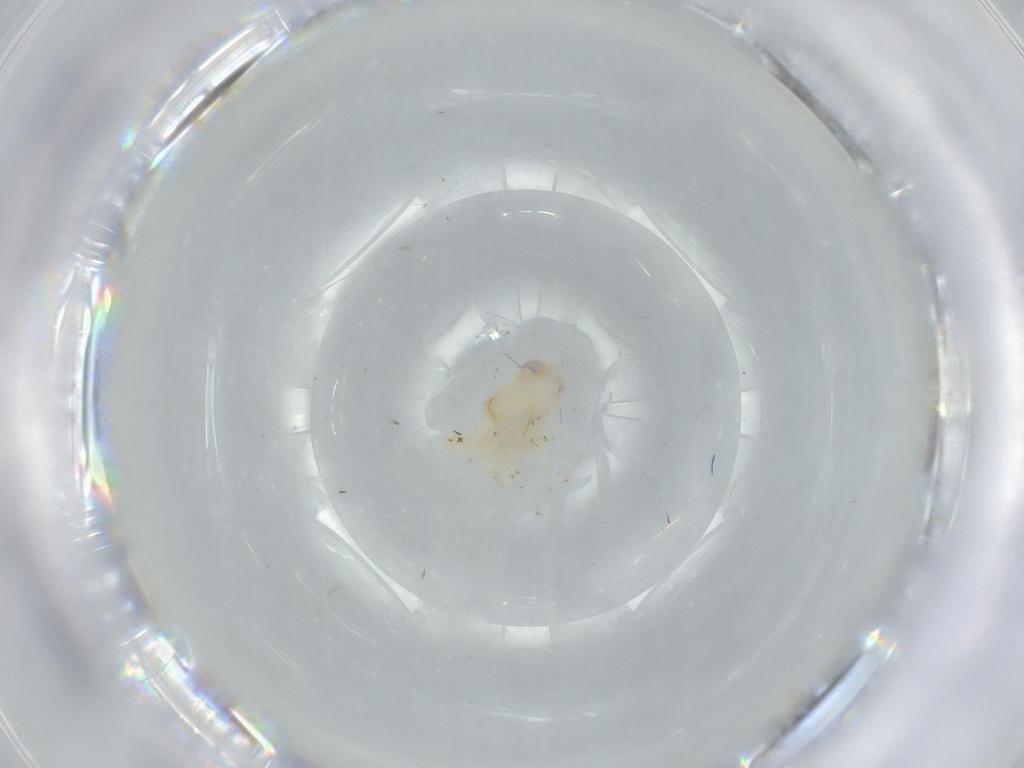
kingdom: Animalia
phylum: Arthropoda
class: Insecta
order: Hemiptera
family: Nogodinidae
